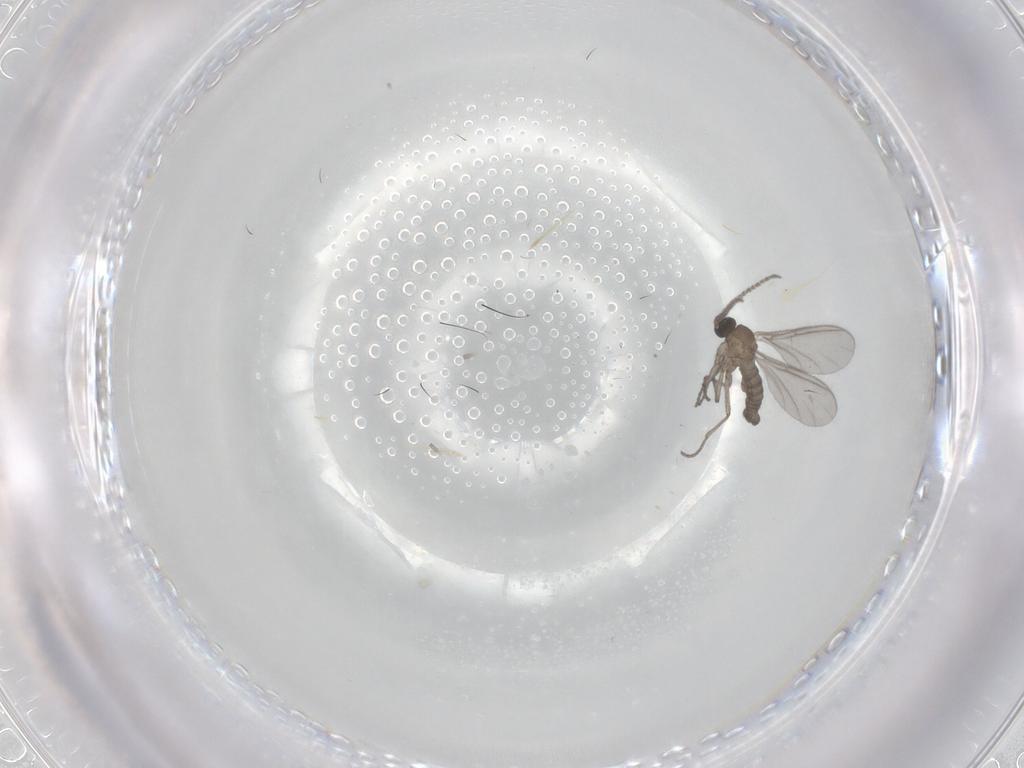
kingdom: Animalia
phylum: Arthropoda
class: Insecta
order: Diptera
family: Sciaridae
